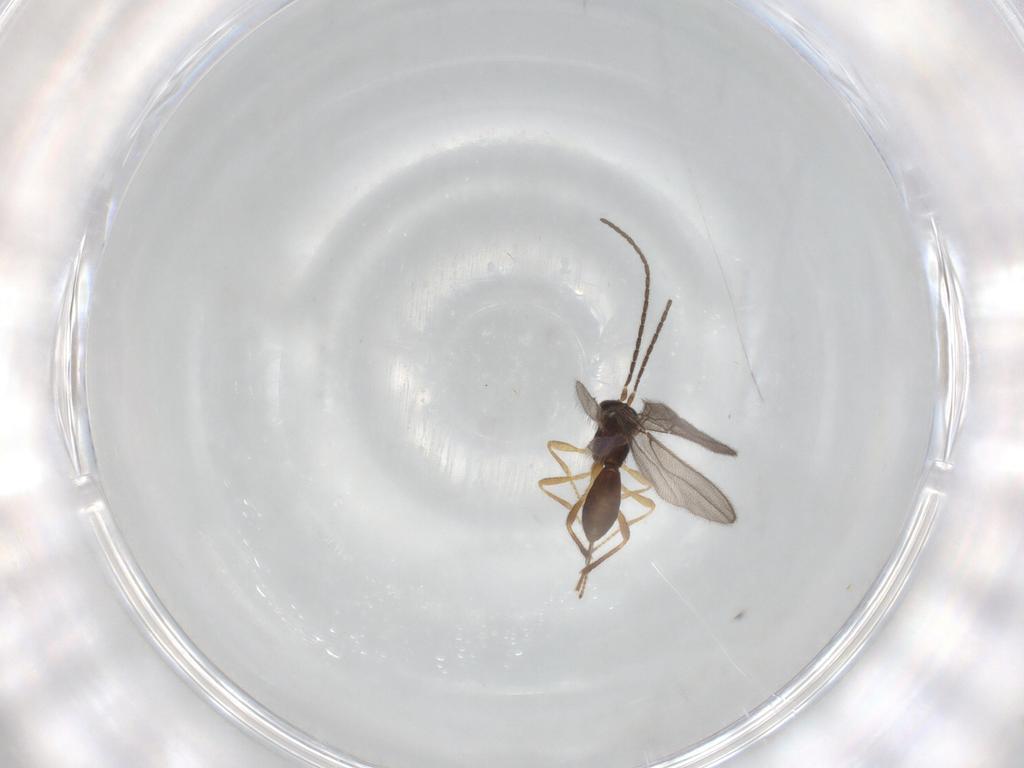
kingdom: Animalia
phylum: Arthropoda
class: Insecta
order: Hymenoptera
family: Braconidae
